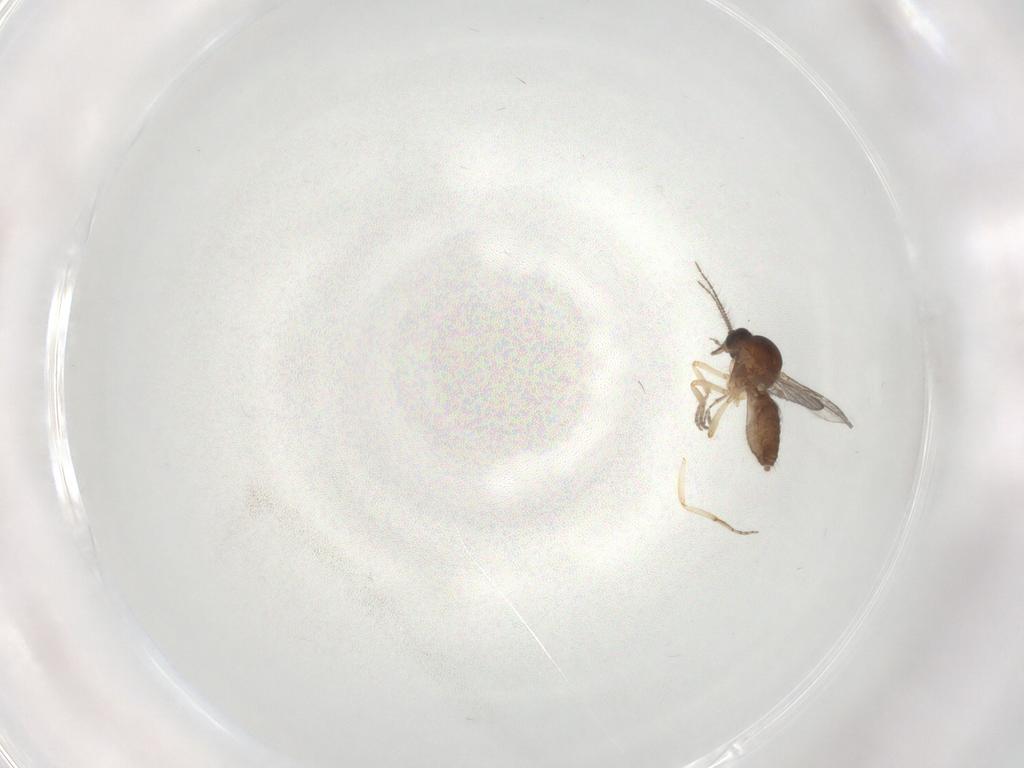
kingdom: Animalia
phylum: Arthropoda
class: Insecta
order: Diptera
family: Ceratopogonidae
